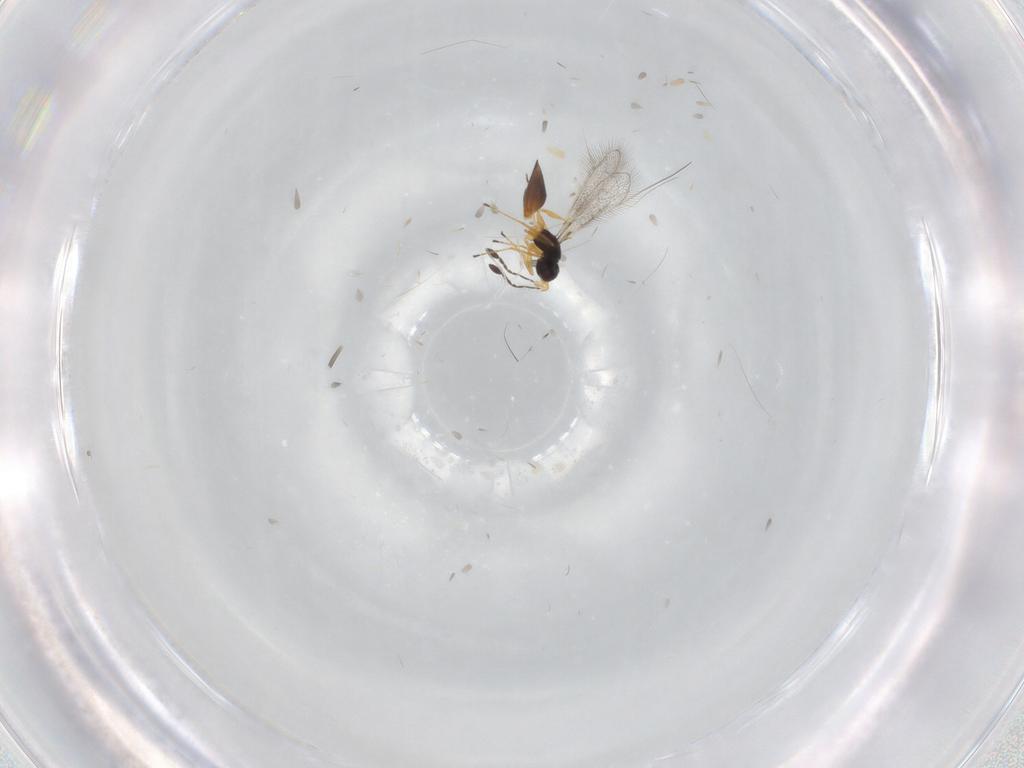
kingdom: Animalia
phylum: Arthropoda
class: Insecta
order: Hymenoptera
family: Mymaridae
